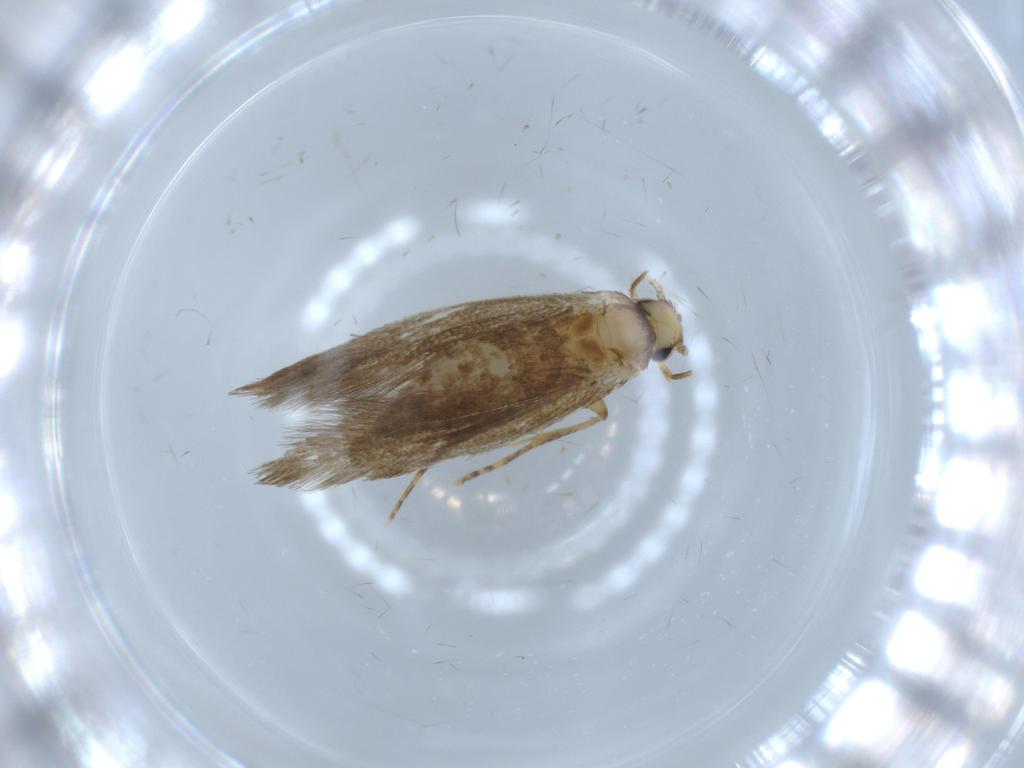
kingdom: Animalia
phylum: Arthropoda
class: Insecta
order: Lepidoptera
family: Tineidae
